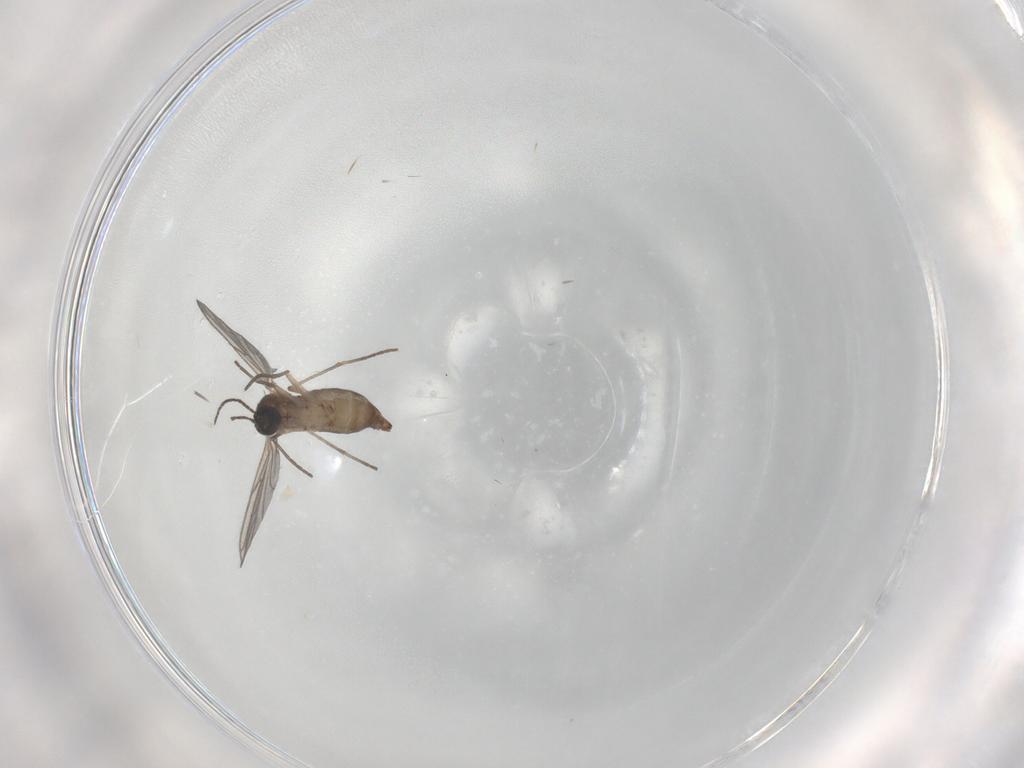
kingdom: Animalia
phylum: Arthropoda
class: Insecta
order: Diptera
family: Sciaridae
